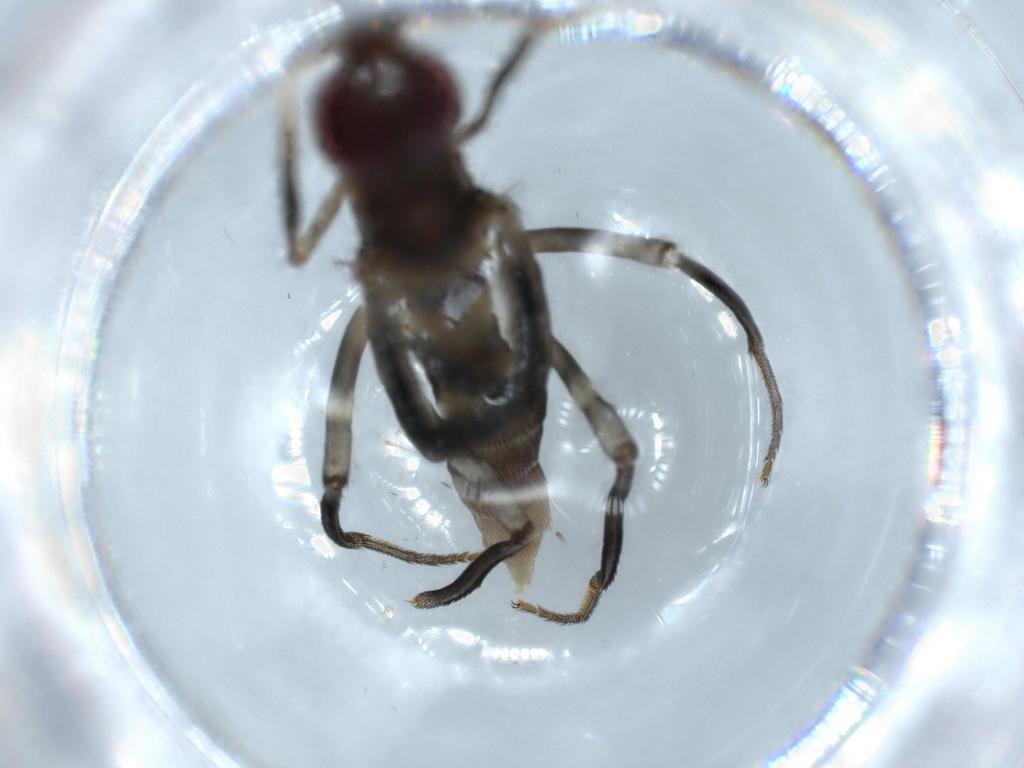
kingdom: Animalia
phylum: Arthropoda
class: Insecta
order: Diptera
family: Micropezidae
